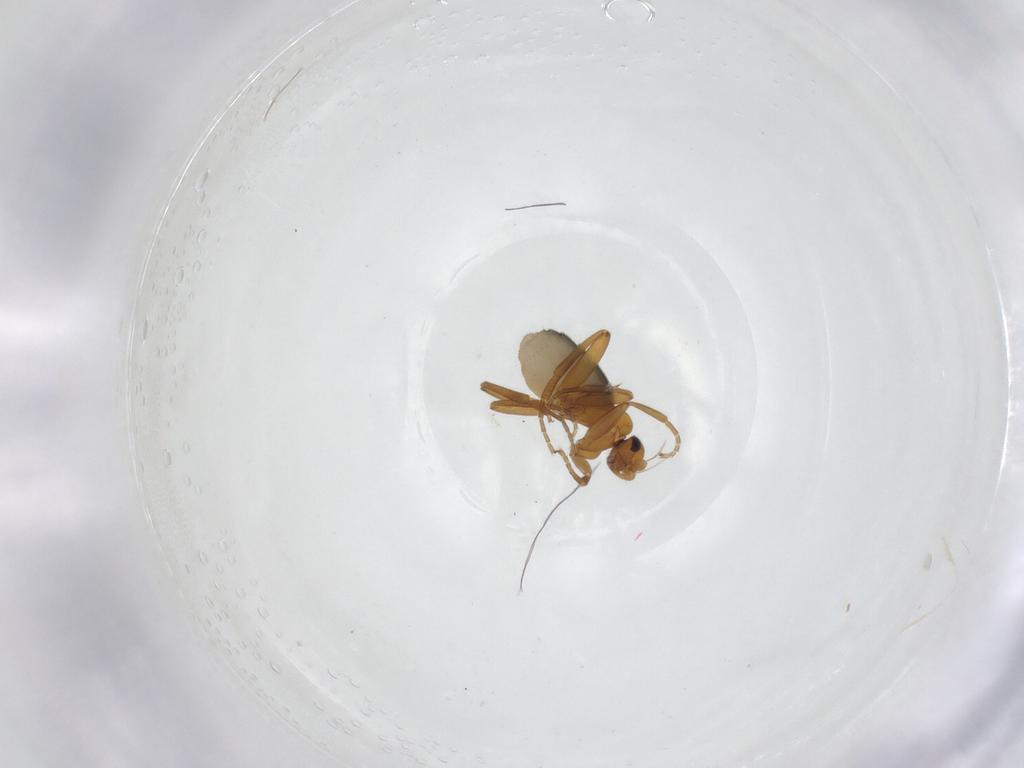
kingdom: Animalia
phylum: Arthropoda
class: Insecta
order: Diptera
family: Phoridae
